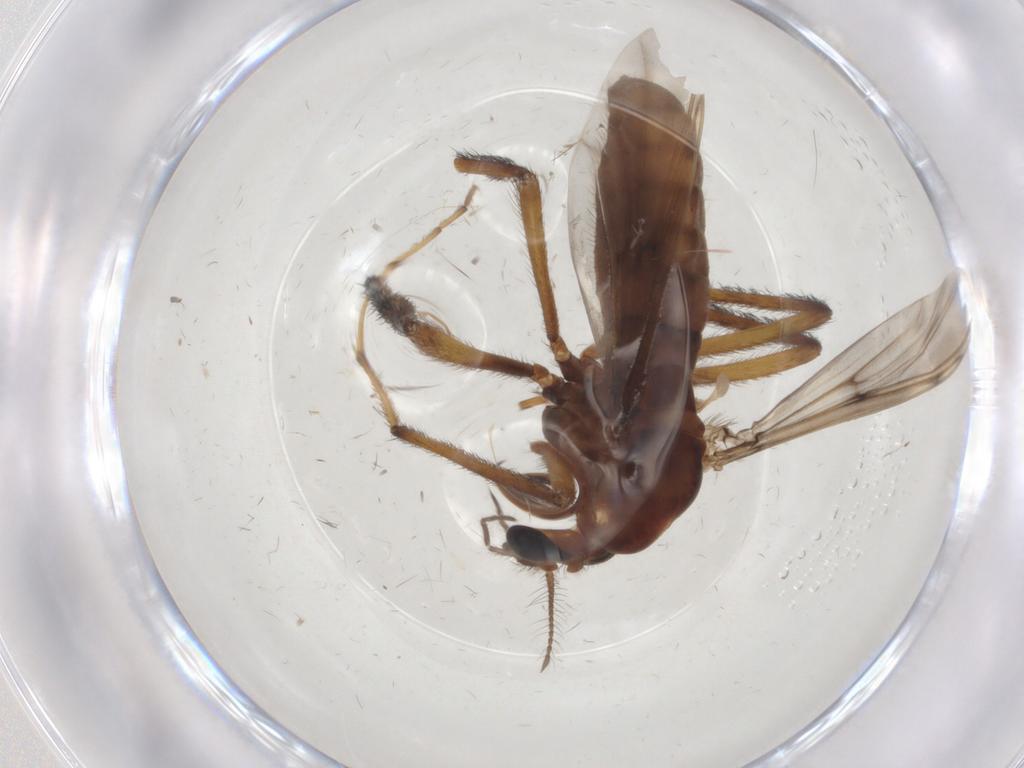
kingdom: Animalia
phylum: Arthropoda
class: Insecta
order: Diptera
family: Chironomidae
